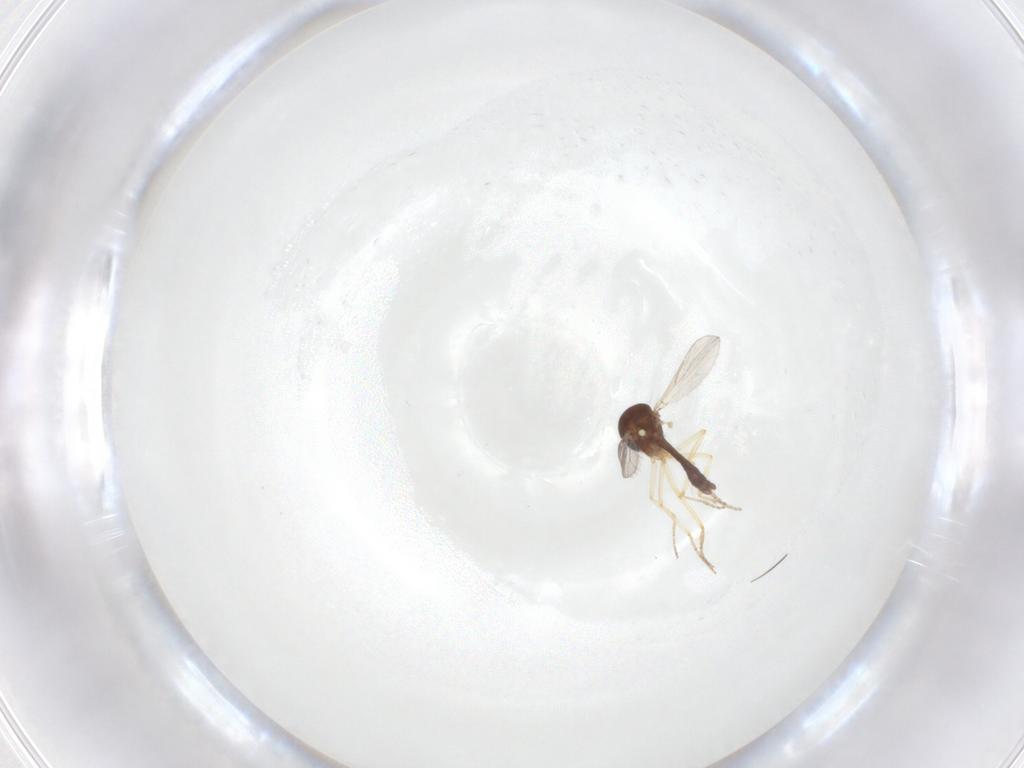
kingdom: Animalia
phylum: Arthropoda
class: Insecta
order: Diptera
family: Ceratopogonidae
